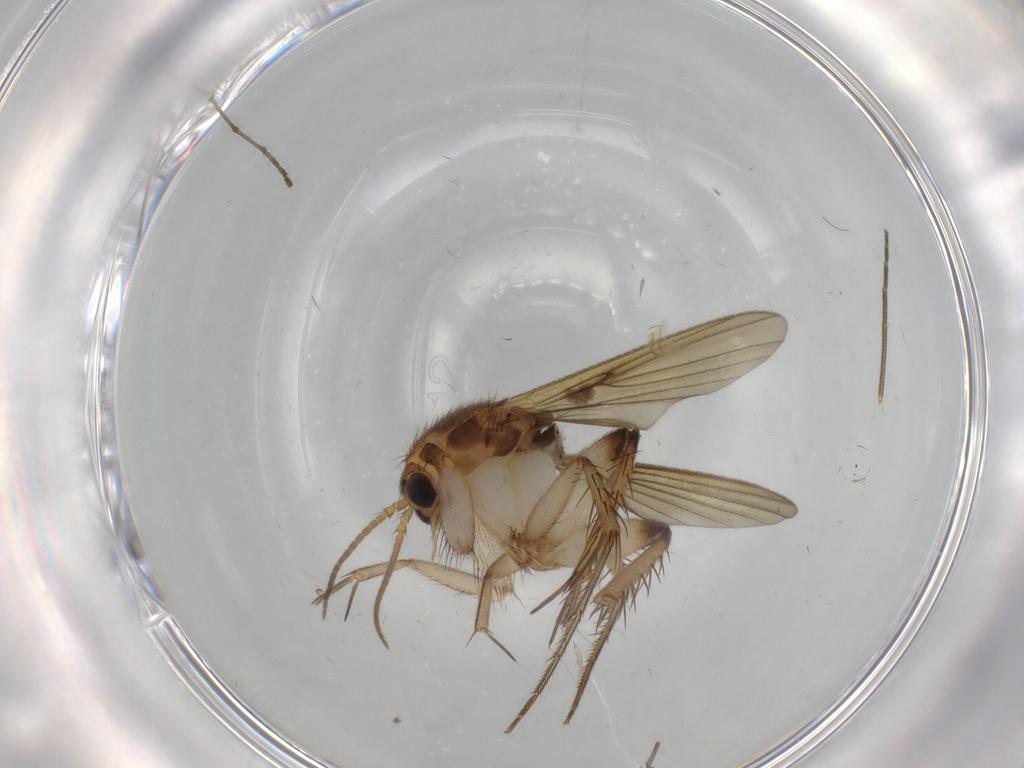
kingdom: Animalia
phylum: Arthropoda
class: Insecta
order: Diptera
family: Mycetophilidae
